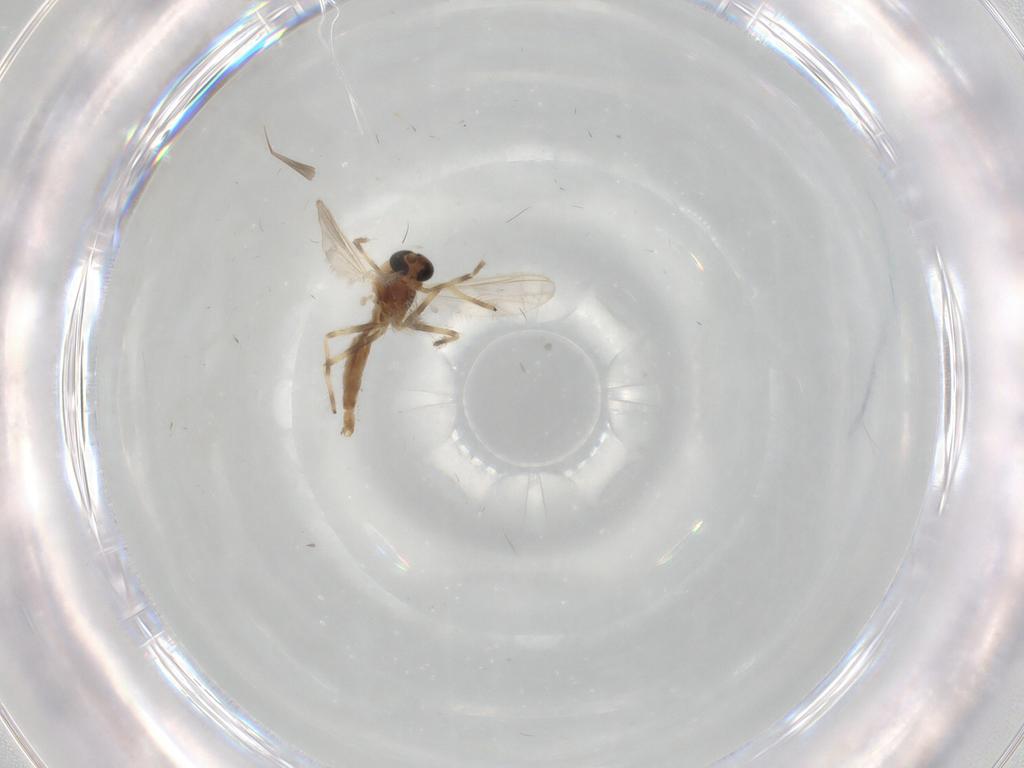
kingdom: Animalia
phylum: Arthropoda
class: Insecta
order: Diptera
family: Chironomidae
